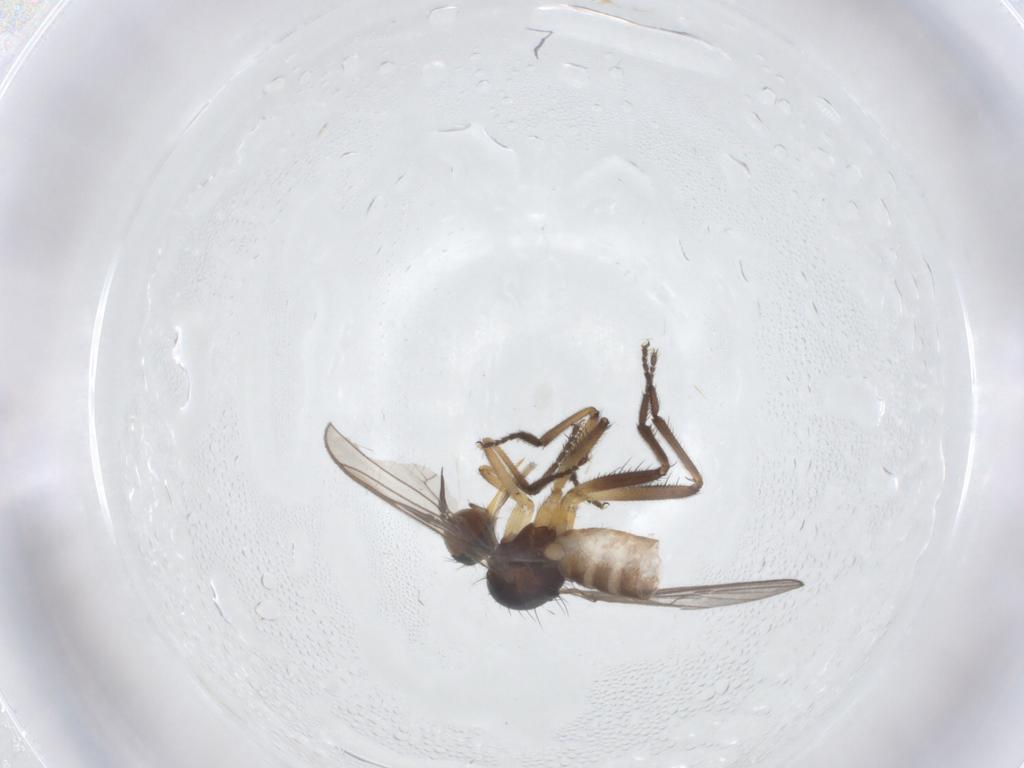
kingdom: Animalia
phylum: Arthropoda
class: Insecta
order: Diptera
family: Empididae
